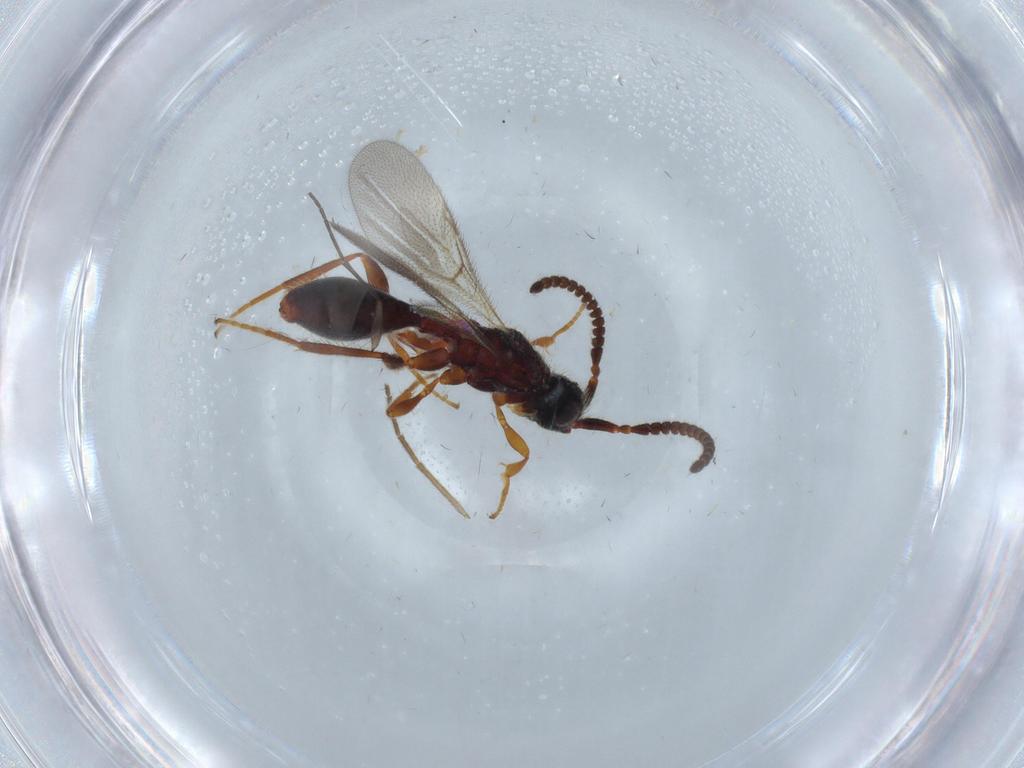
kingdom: Animalia
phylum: Arthropoda
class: Insecta
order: Hymenoptera
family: Diapriidae
